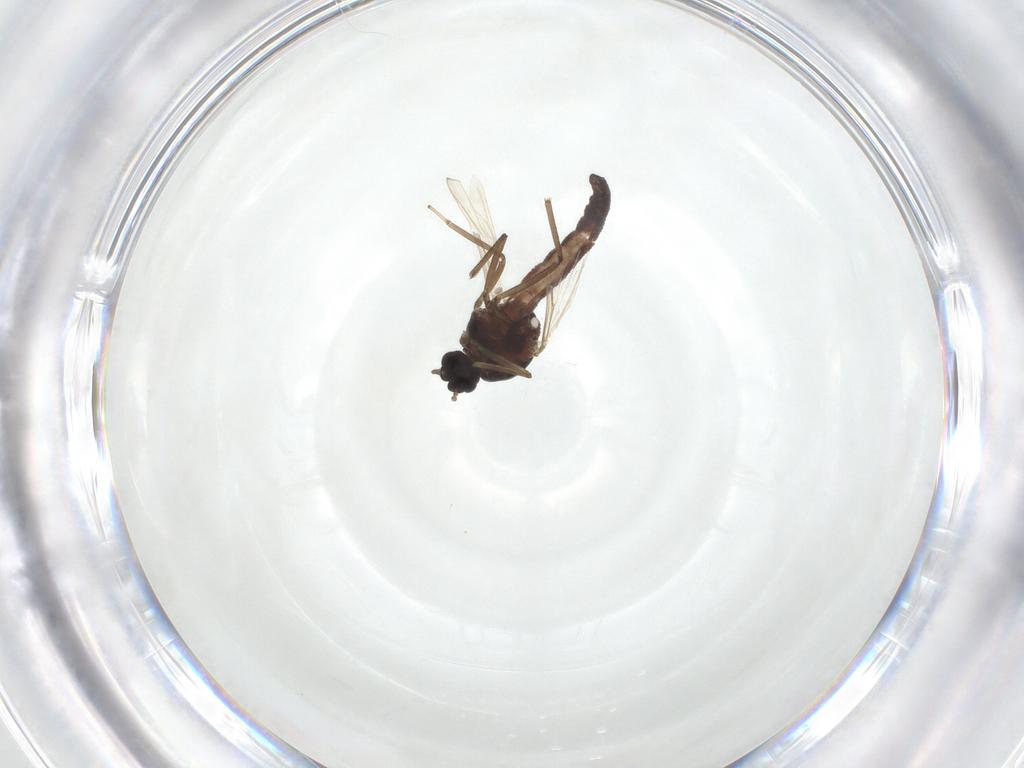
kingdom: Animalia
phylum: Arthropoda
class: Insecta
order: Diptera
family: Ceratopogonidae
